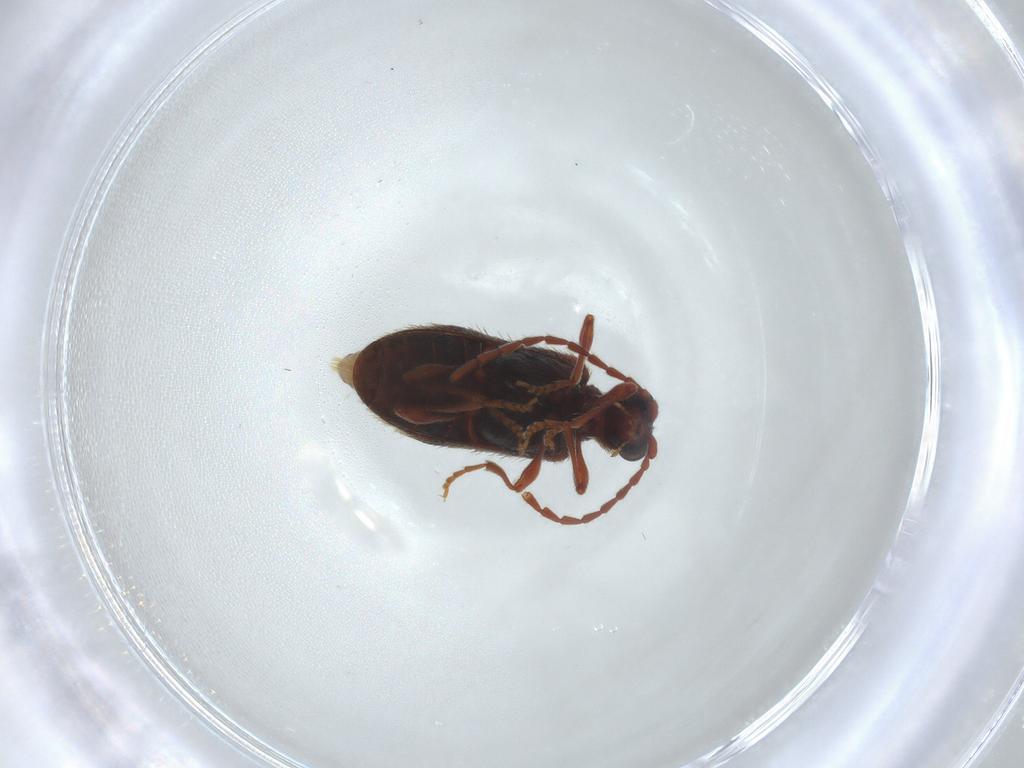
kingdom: Animalia
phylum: Arthropoda
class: Insecta
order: Coleoptera
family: Ptinidae
